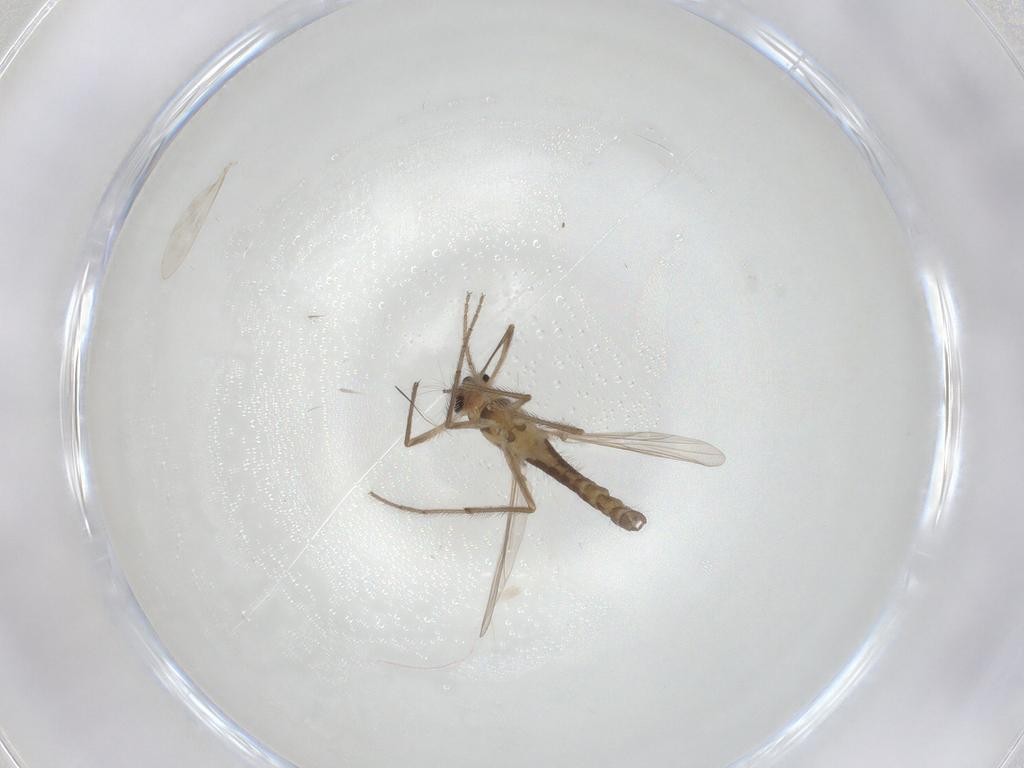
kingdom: Animalia
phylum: Arthropoda
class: Insecta
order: Diptera
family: Chironomidae
